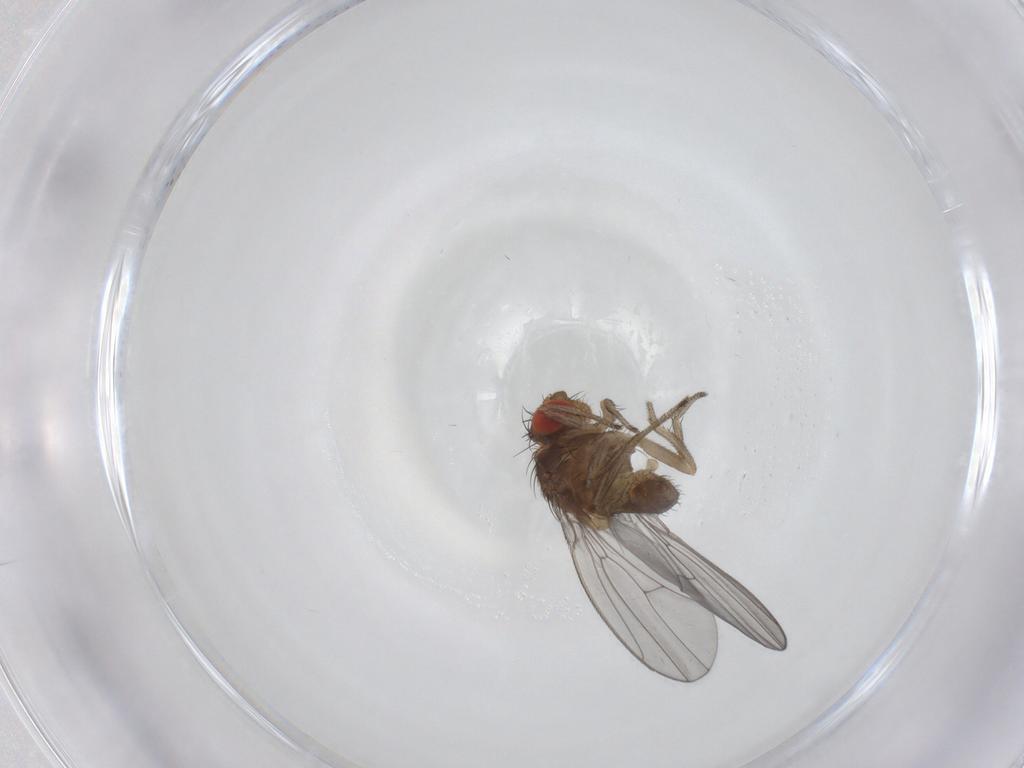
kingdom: Animalia
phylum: Arthropoda
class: Insecta
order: Diptera
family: Drosophilidae
